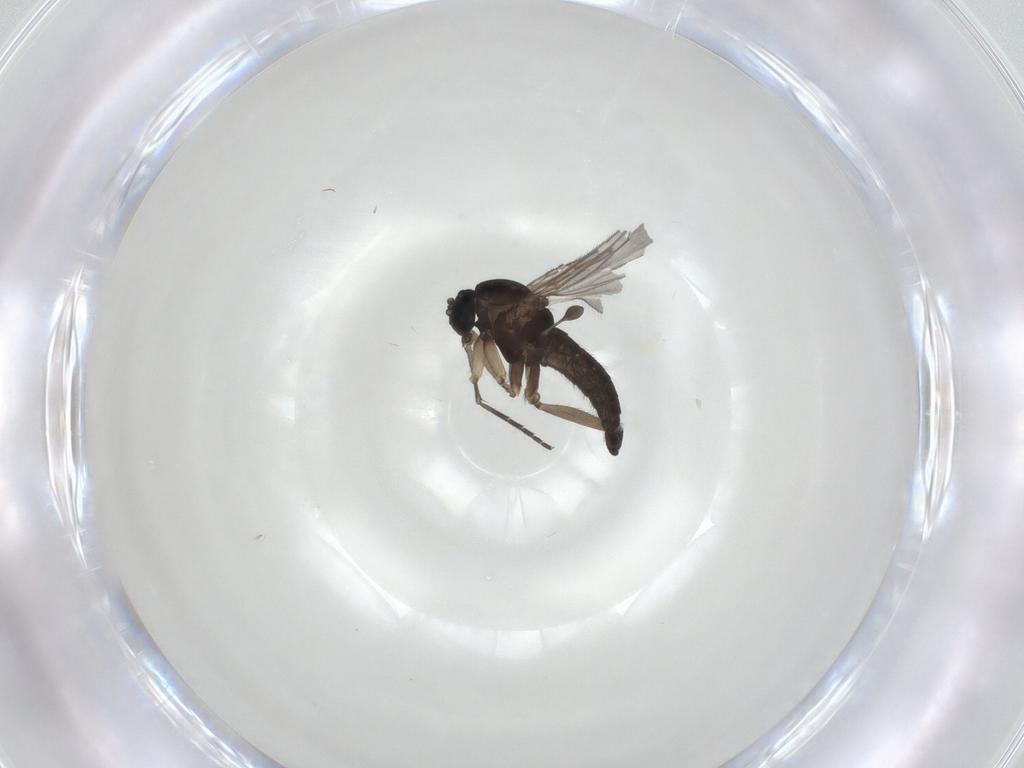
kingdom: Animalia
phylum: Arthropoda
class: Insecta
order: Diptera
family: Sciaridae
